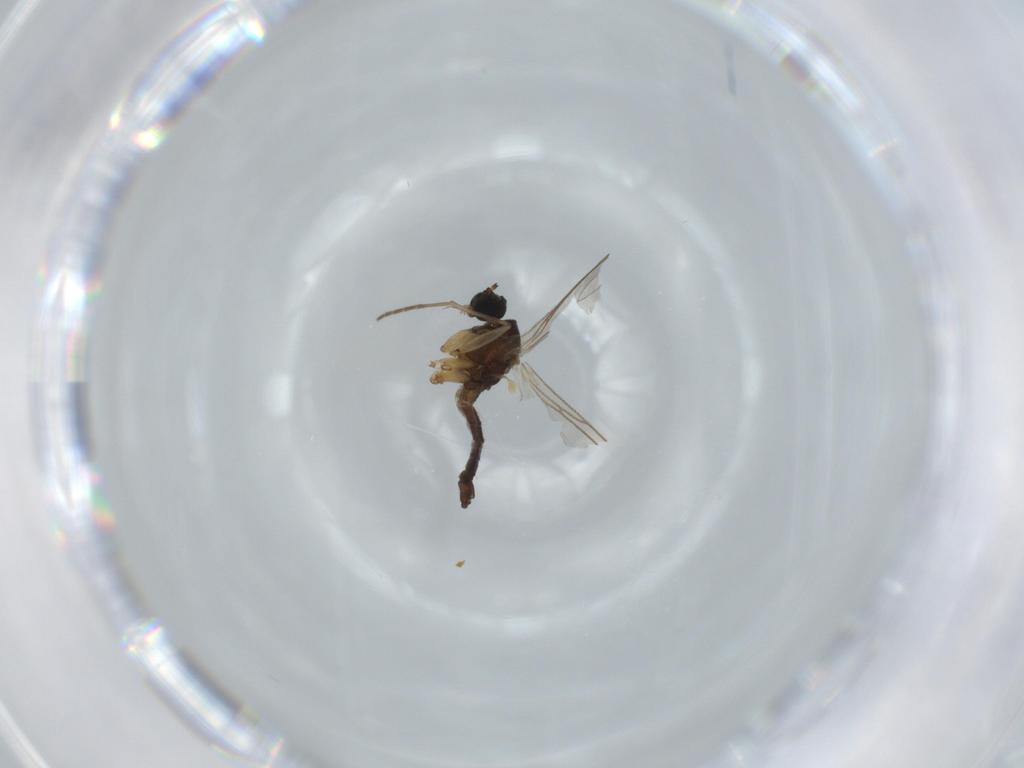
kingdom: Animalia
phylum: Arthropoda
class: Insecta
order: Diptera
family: Sciaridae
